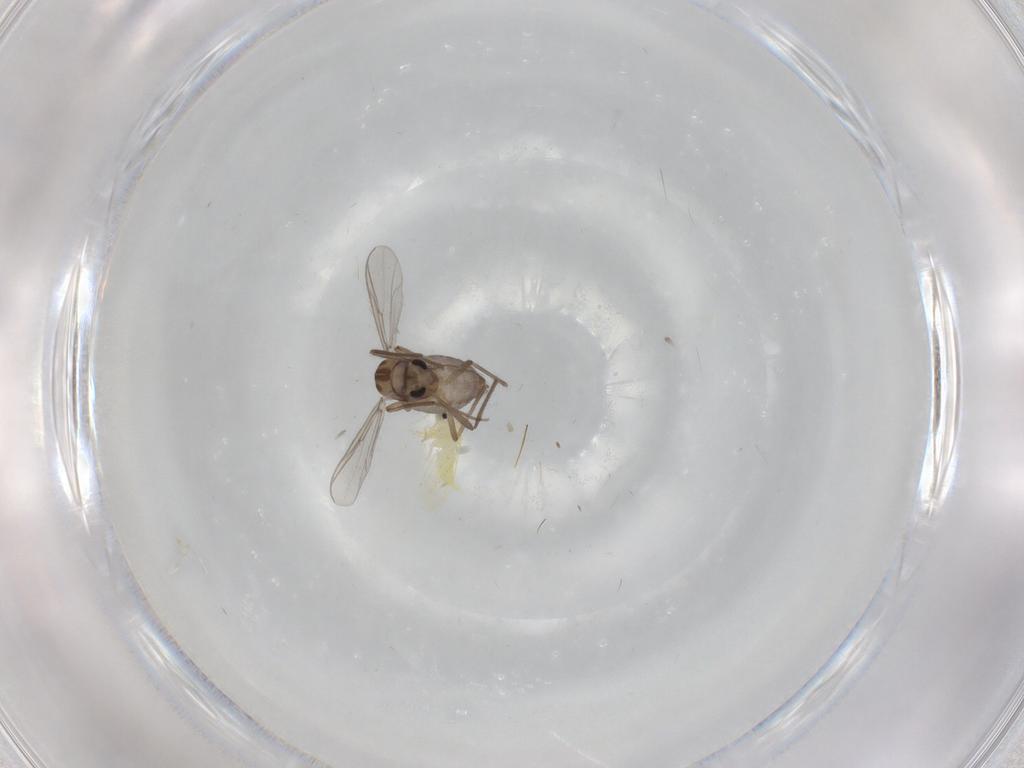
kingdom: Animalia
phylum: Arthropoda
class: Insecta
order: Diptera
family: Chironomidae
